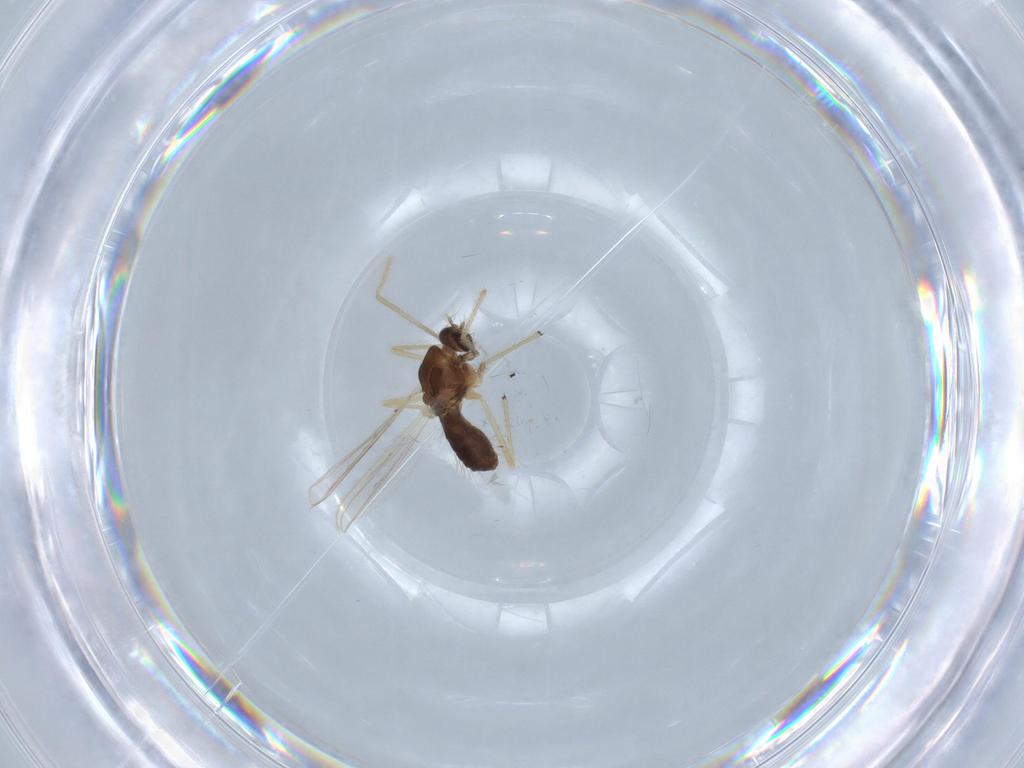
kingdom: Animalia
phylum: Arthropoda
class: Insecta
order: Diptera
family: Chironomidae
